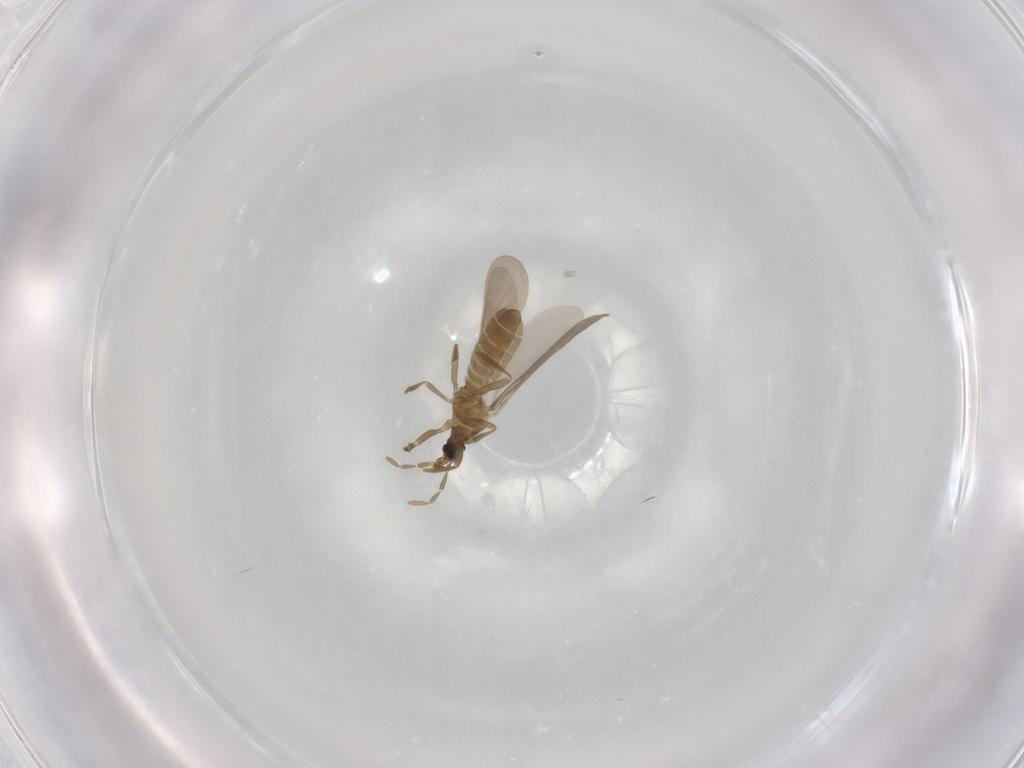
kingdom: Animalia
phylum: Arthropoda
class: Insecta
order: Hemiptera
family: Enicocephalidae
